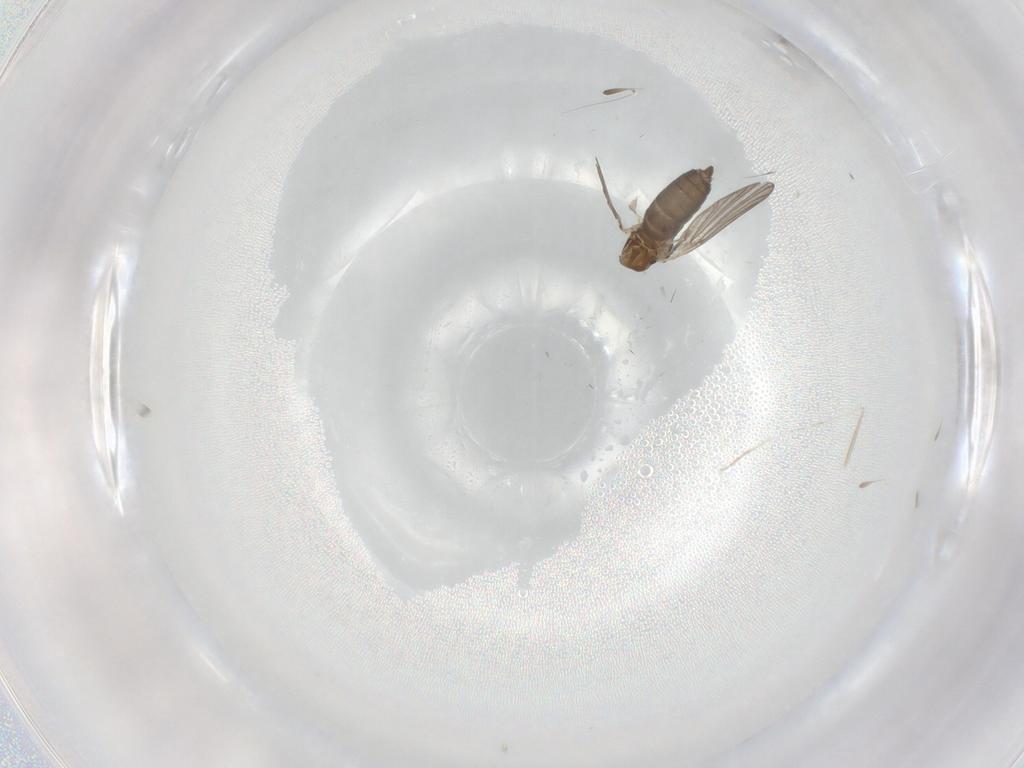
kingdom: Animalia
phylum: Arthropoda
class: Insecta
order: Diptera
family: Cecidomyiidae
